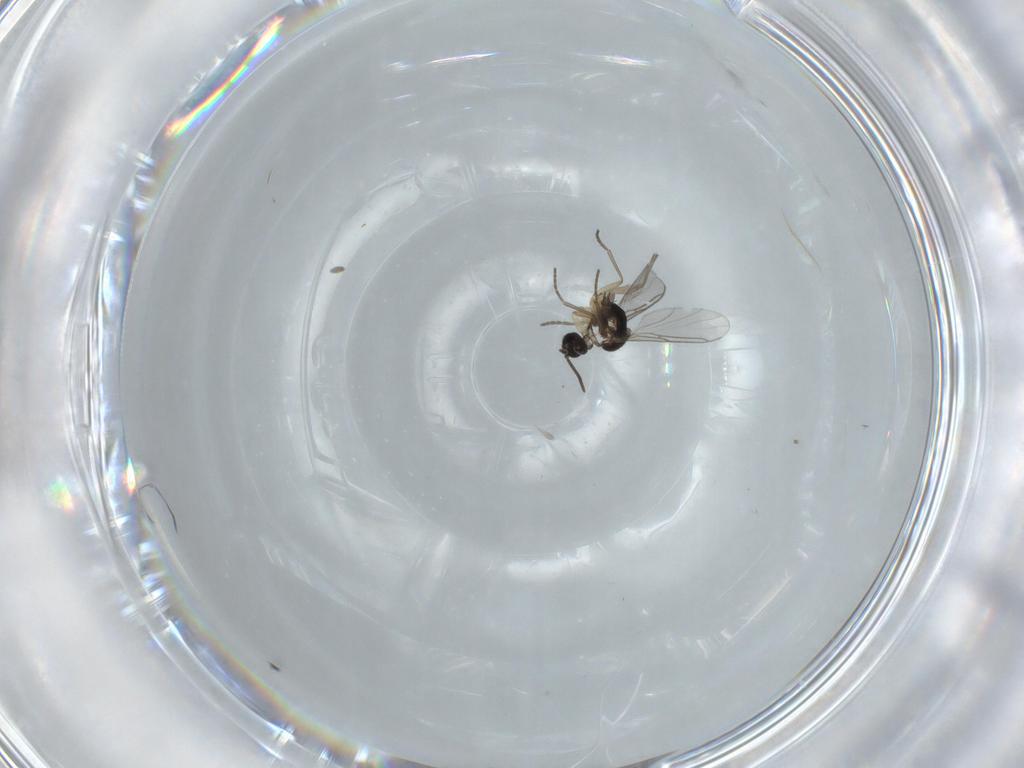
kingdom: Animalia
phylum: Arthropoda
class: Insecta
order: Diptera
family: Sciaridae
